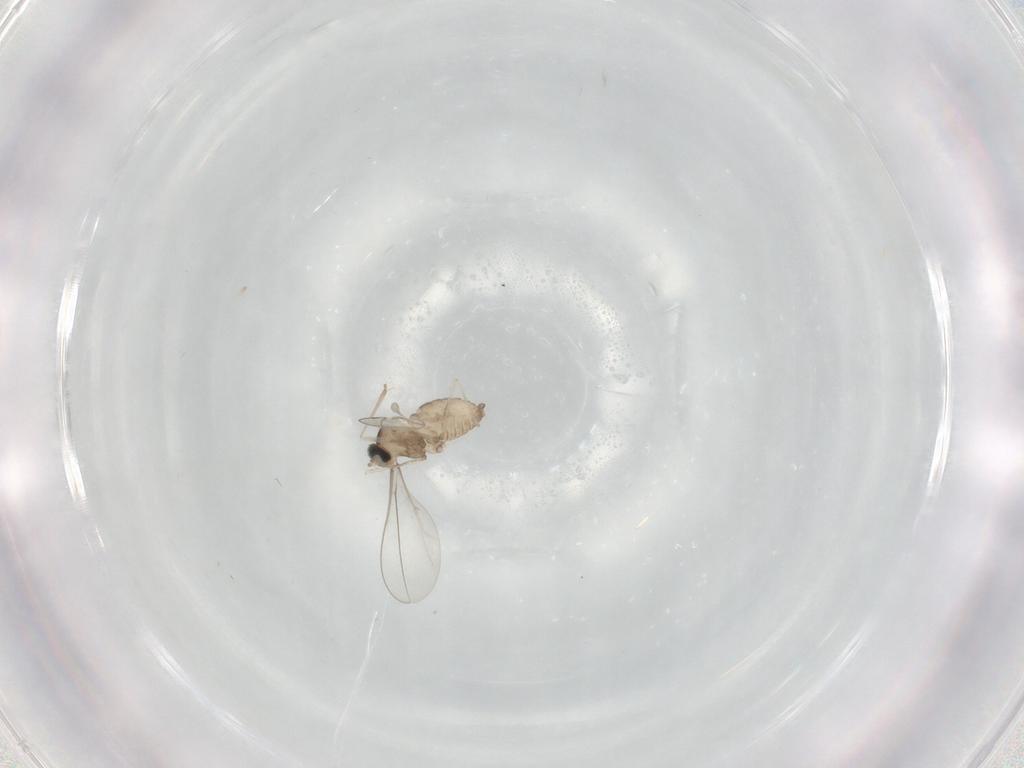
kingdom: Animalia
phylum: Arthropoda
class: Insecta
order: Diptera
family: Cecidomyiidae
